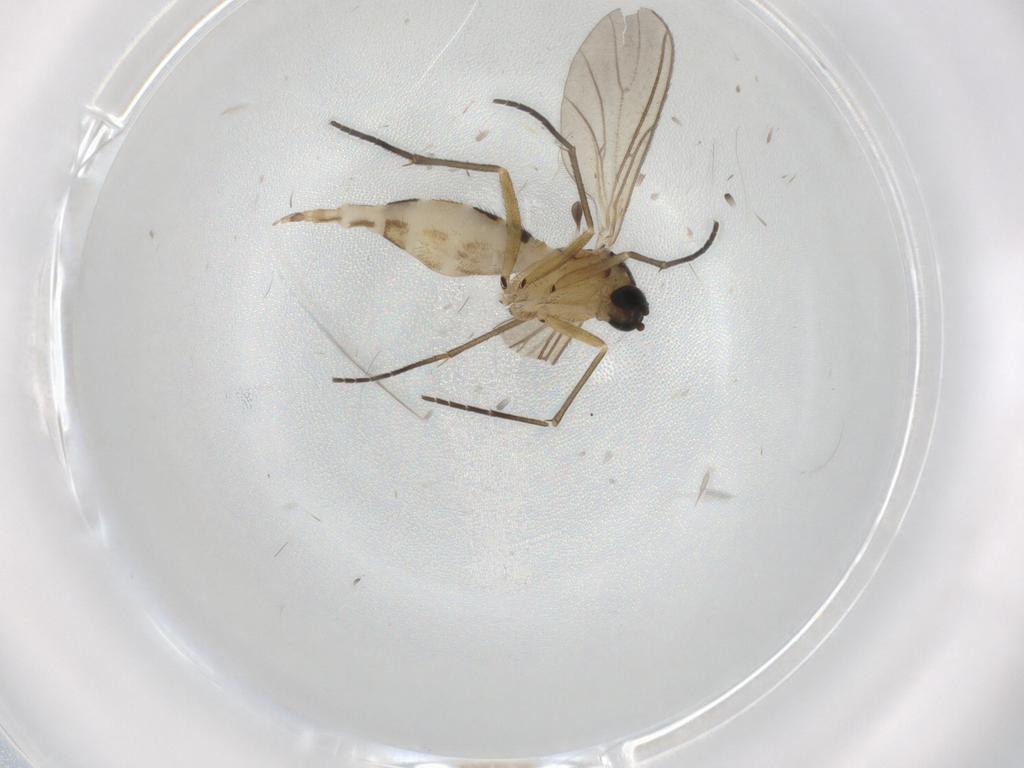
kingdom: Animalia
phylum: Arthropoda
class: Insecta
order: Diptera
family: Sciaridae
